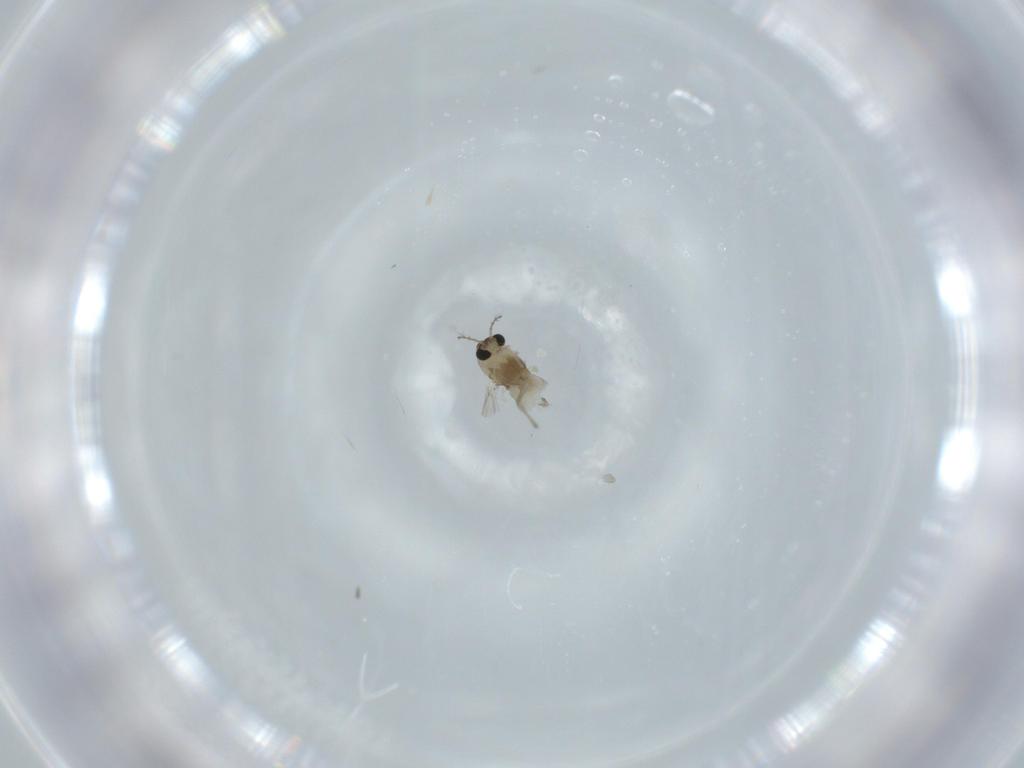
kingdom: Animalia
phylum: Arthropoda
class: Insecta
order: Diptera
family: Chironomidae
